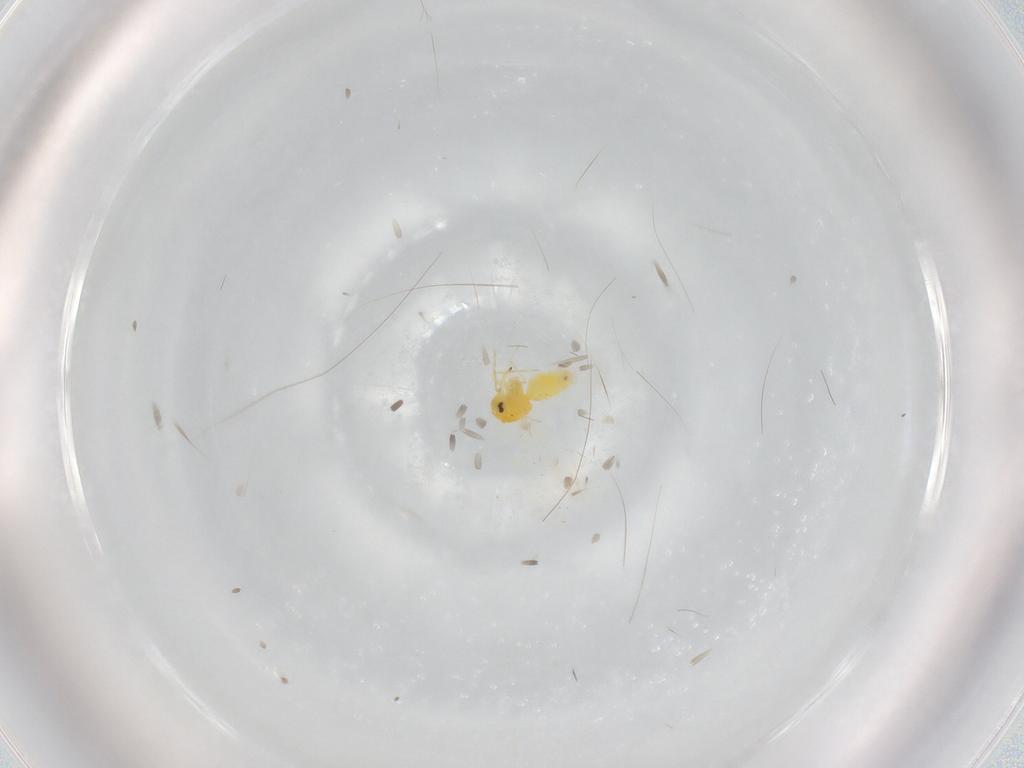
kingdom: Animalia
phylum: Arthropoda
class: Insecta
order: Hemiptera
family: Aleyrodidae
